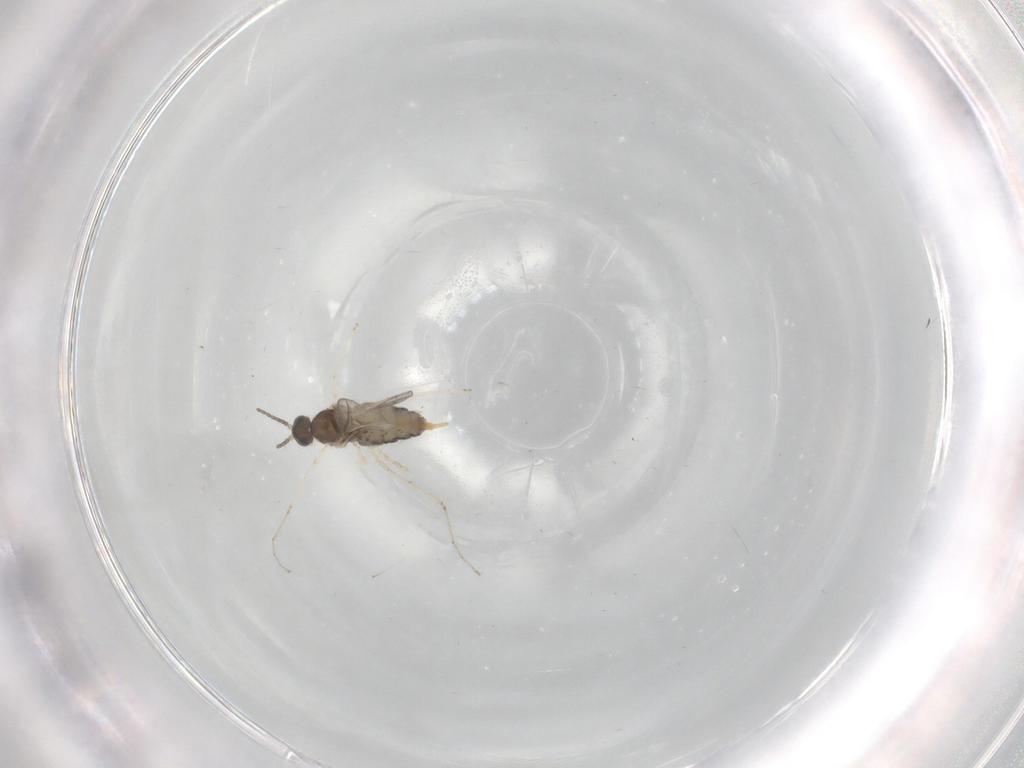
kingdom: Animalia
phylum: Arthropoda
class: Insecta
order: Diptera
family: Cecidomyiidae
